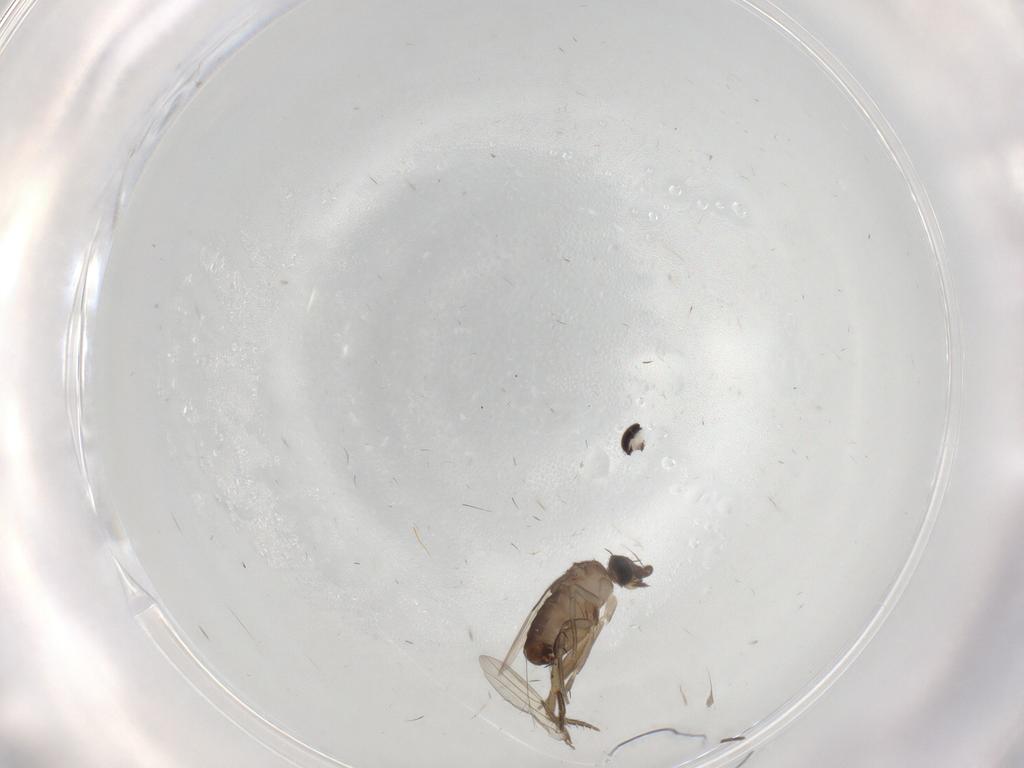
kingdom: Animalia
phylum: Arthropoda
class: Insecta
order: Diptera
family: Phoridae
